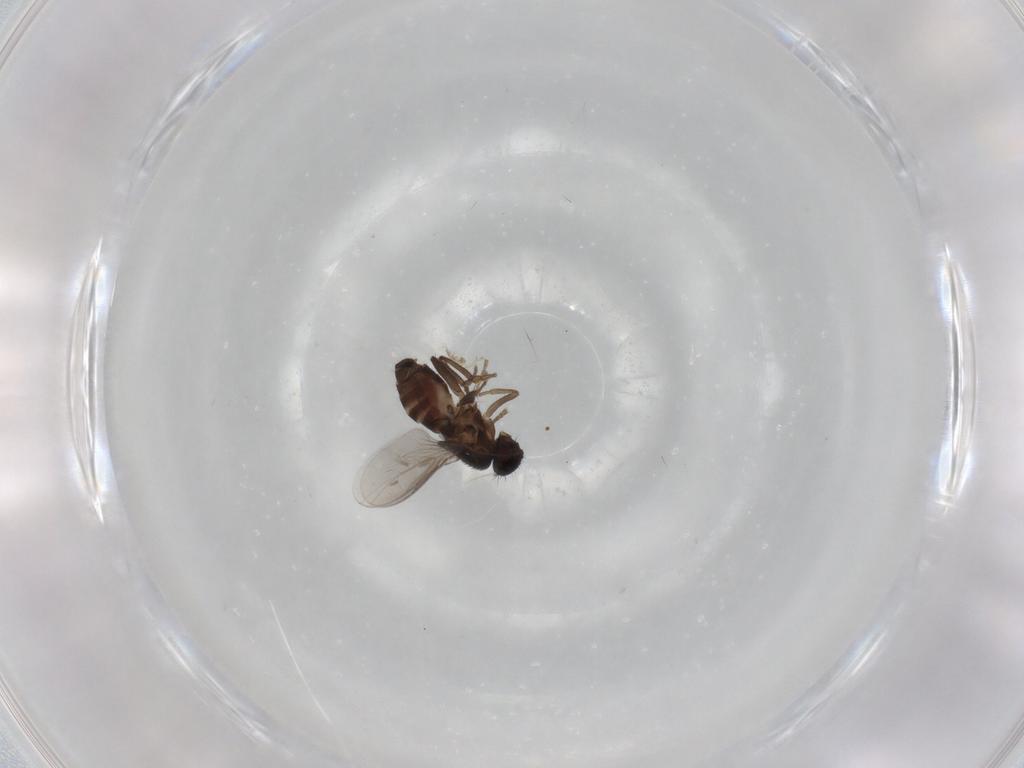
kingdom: Animalia
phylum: Arthropoda
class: Insecta
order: Diptera
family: Sphaeroceridae
